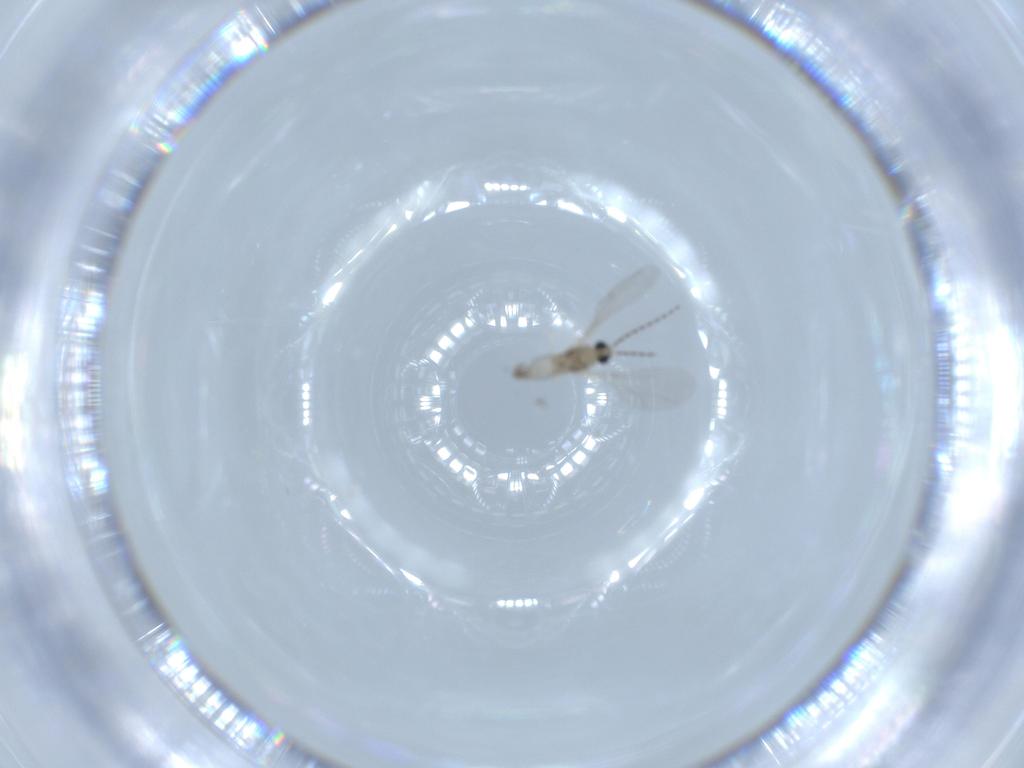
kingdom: Animalia
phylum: Arthropoda
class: Insecta
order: Diptera
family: Cecidomyiidae
